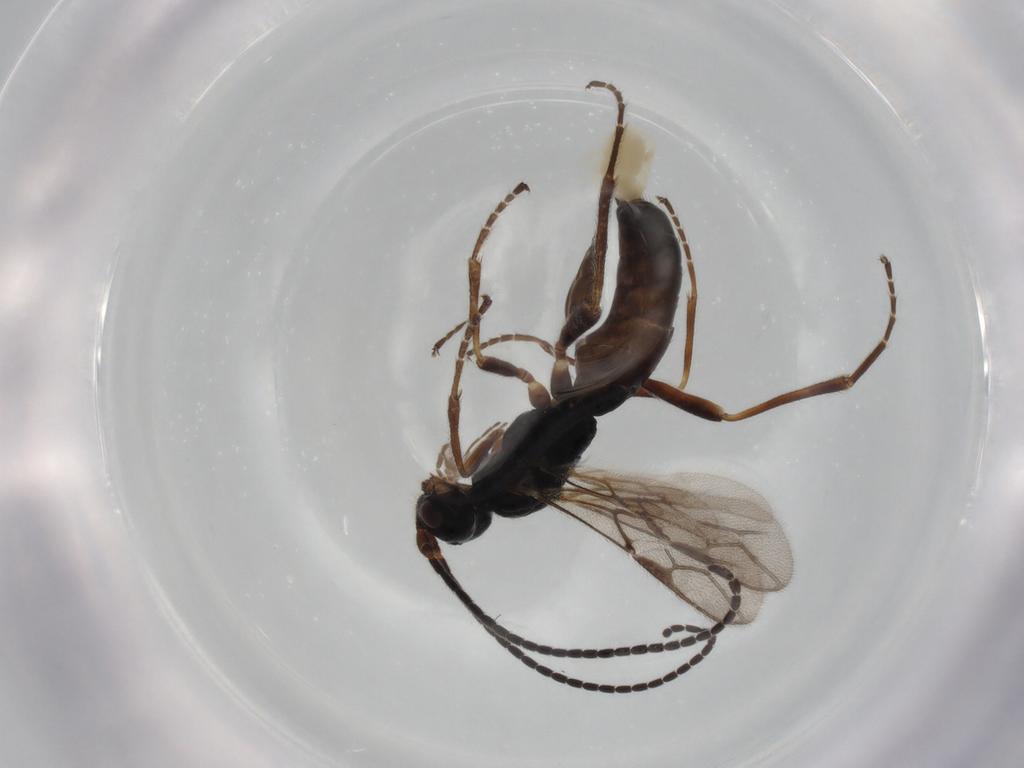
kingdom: Animalia
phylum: Arthropoda
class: Insecta
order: Hymenoptera
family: Braconidae
